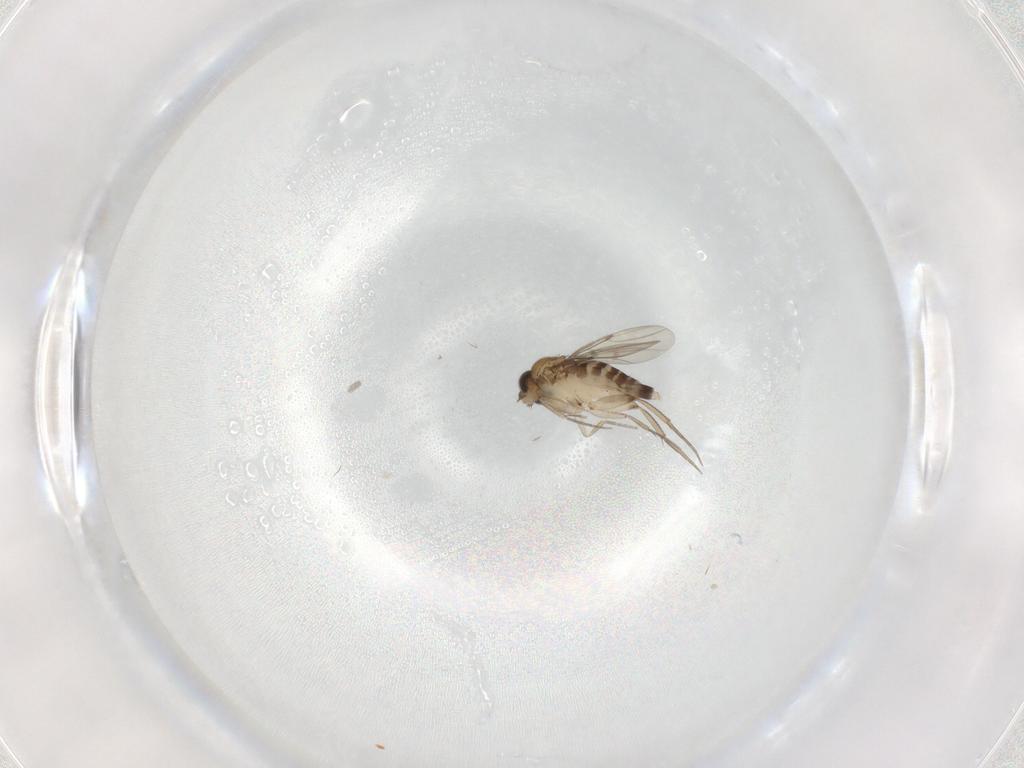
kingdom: Animalia
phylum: Arthropoda
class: Insecta
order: Diptera
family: Phoridae
